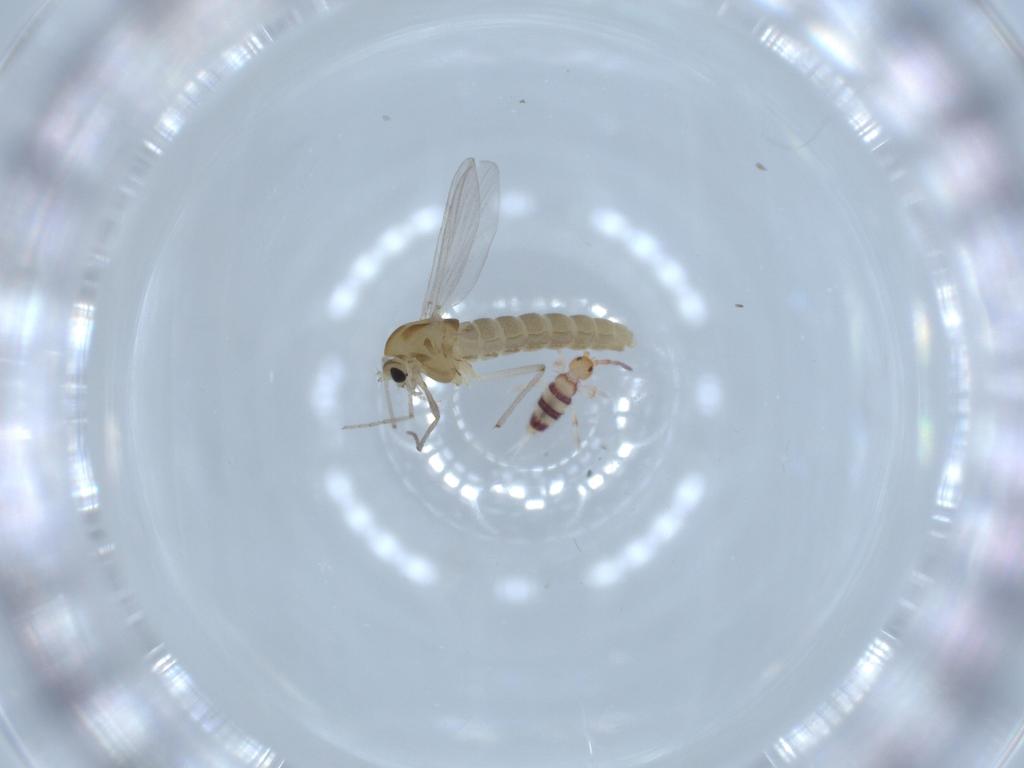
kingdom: Animalia
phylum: Arthropoda
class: Insecta
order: Diptera
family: Chironomidae
